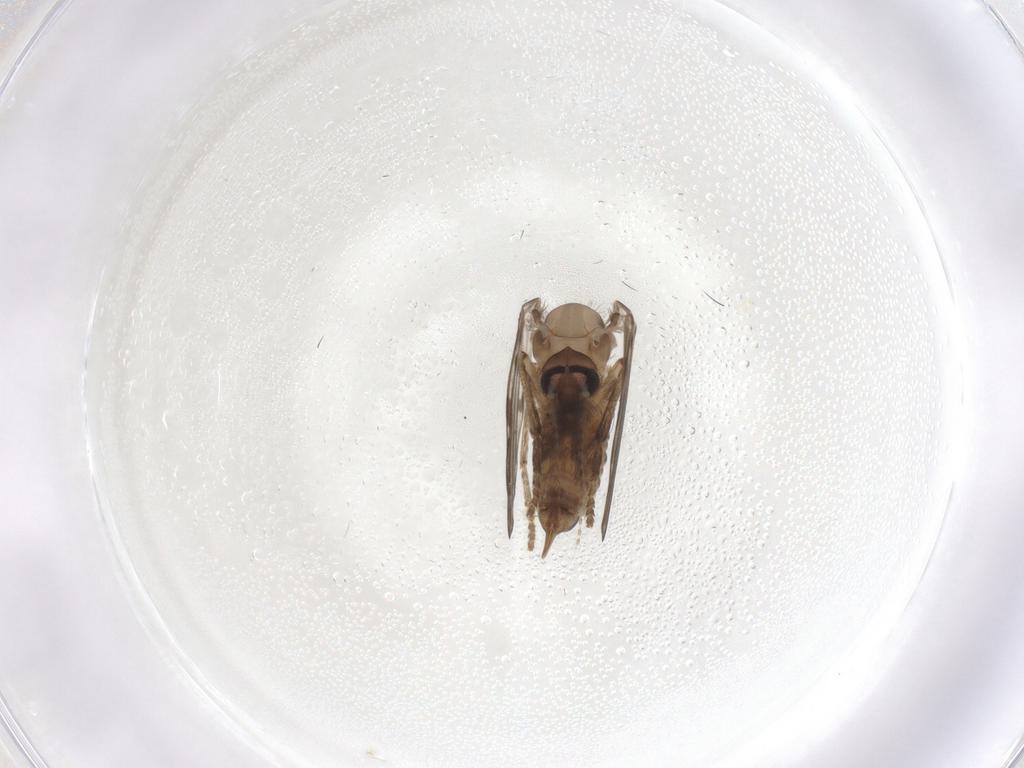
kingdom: Animalia
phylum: Arthropoda
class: Insecta
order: Diptera
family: Psychodidae
